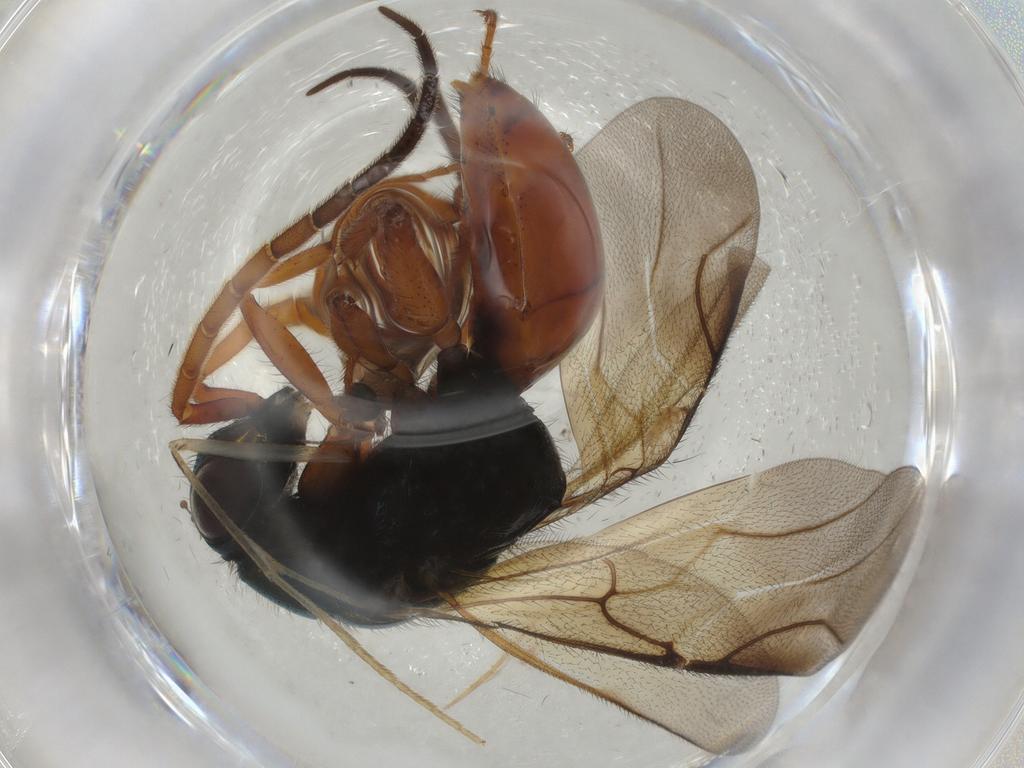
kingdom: Animalia
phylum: Arthropoda
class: Insecta
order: Hymenoptera
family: Chrysididae
